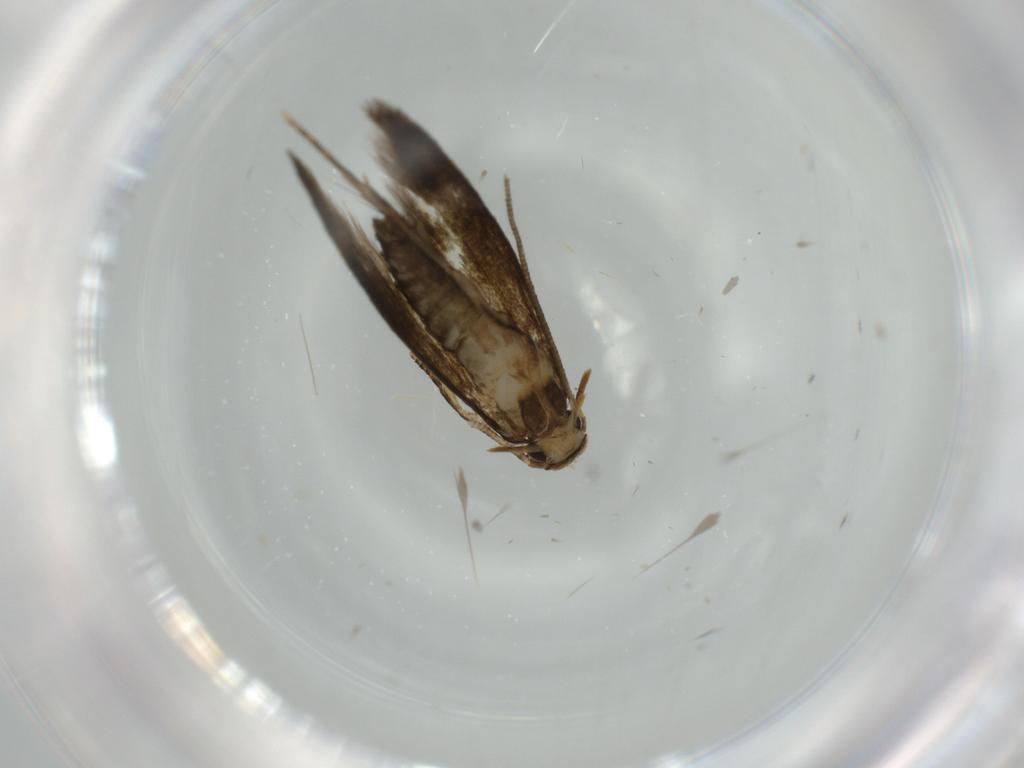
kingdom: Animalia
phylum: Arthropoda
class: Insecta
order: Lepidoptera
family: Tineidae
